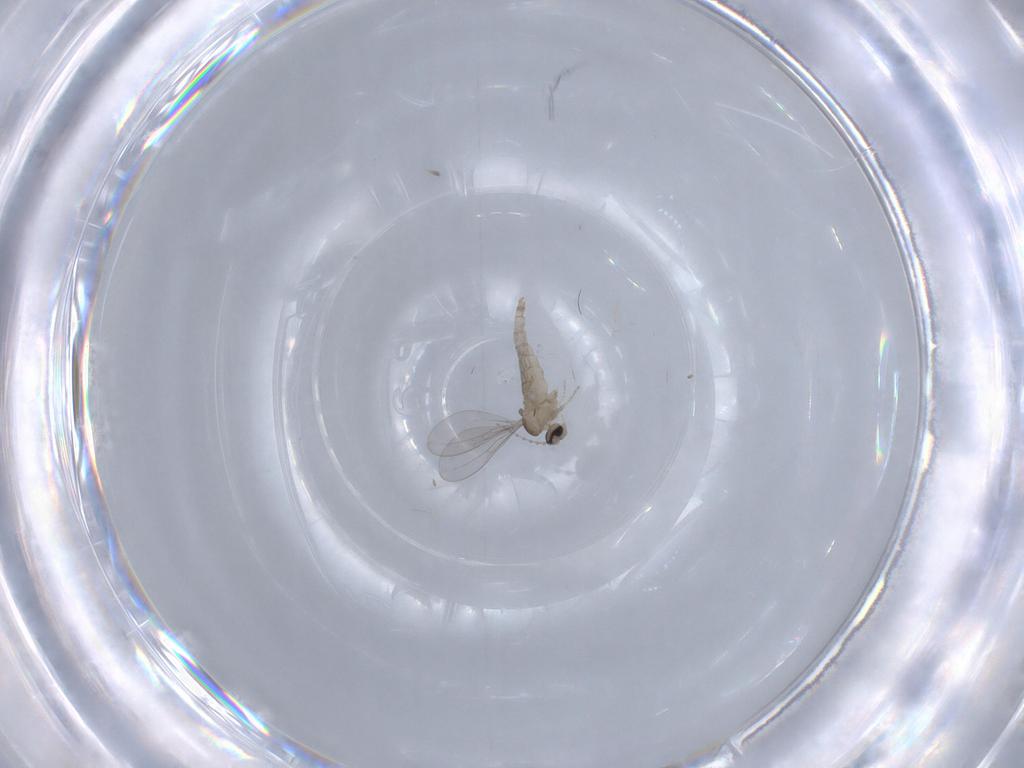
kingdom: Animalia
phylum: Arthropoda
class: Insecta
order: Diptera
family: Cecidomyiidae
